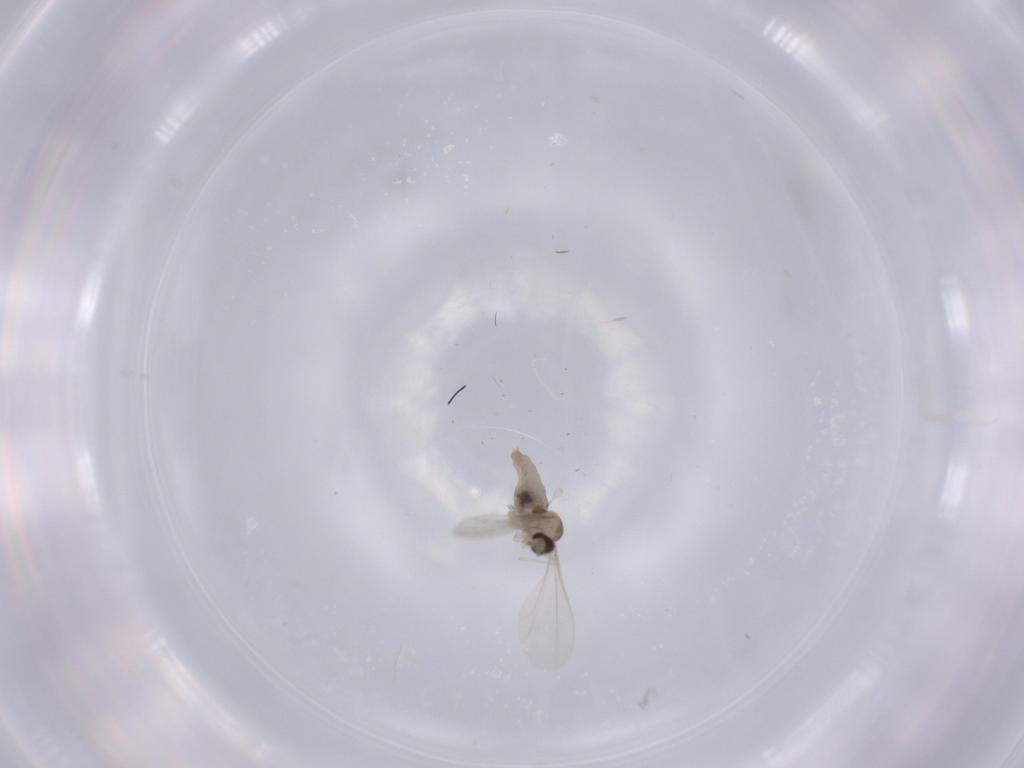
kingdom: Animalia
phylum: Arthropoda
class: Insecta
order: Diptera
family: Cecidomyiidae
